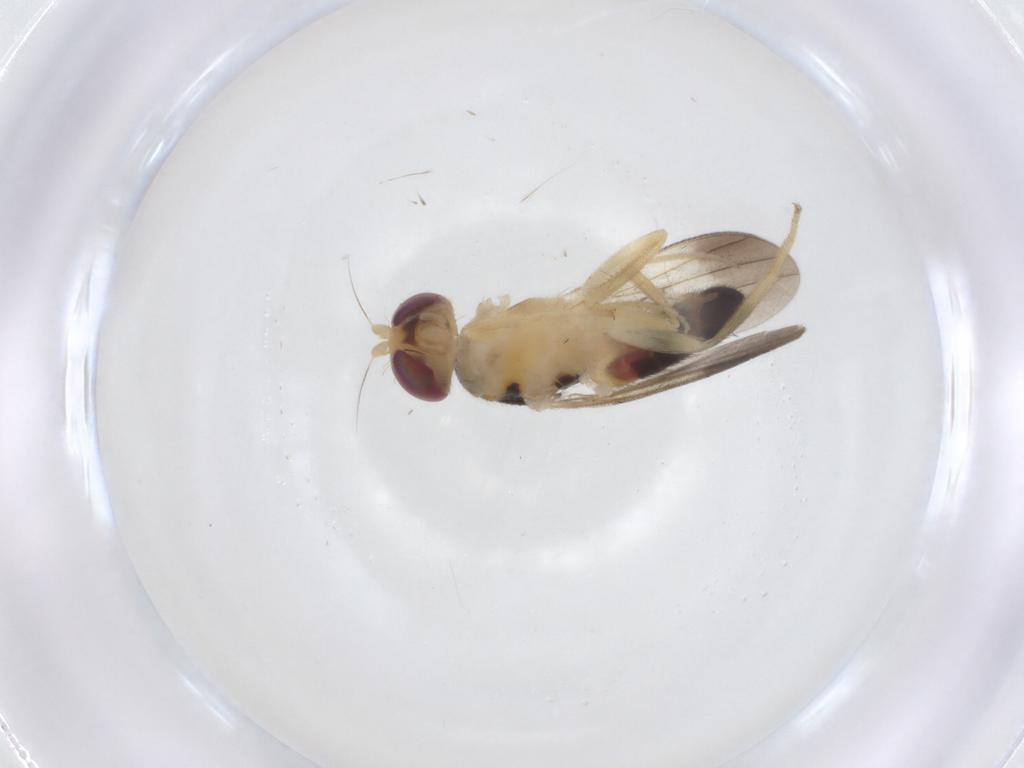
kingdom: Animalia
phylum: Arthropoda
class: Insecta
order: Diptera
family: Clusiidae
